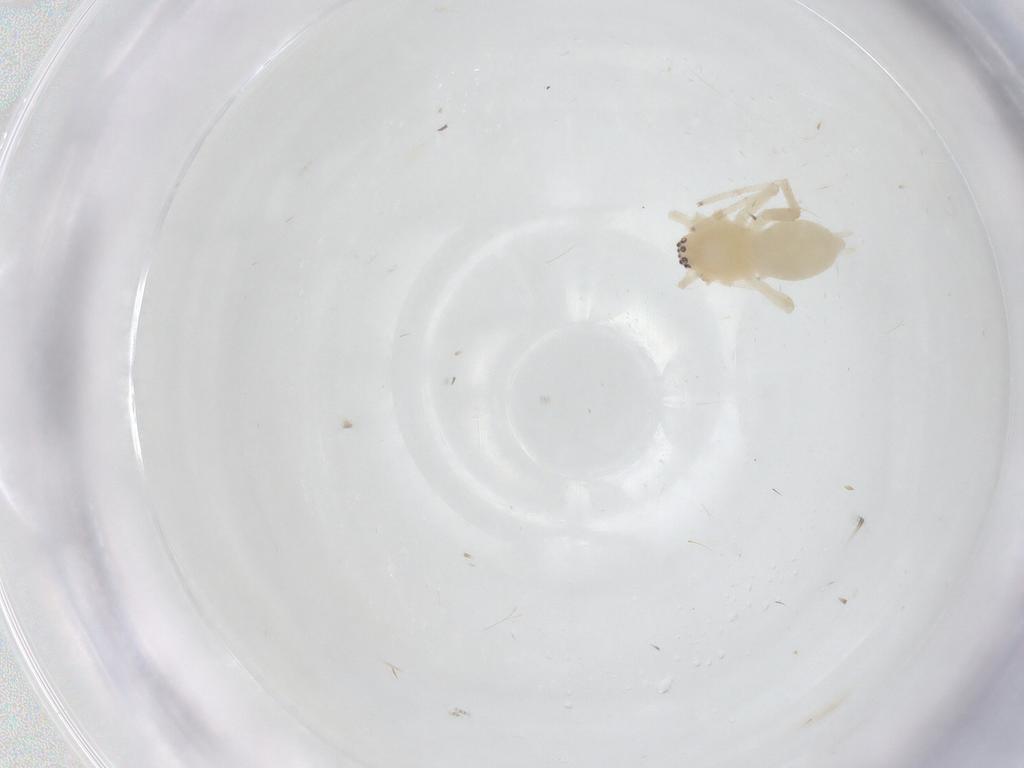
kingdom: Animalia
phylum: Arthropoda
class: Arachnida
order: Araneae
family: Anyphaenidae
